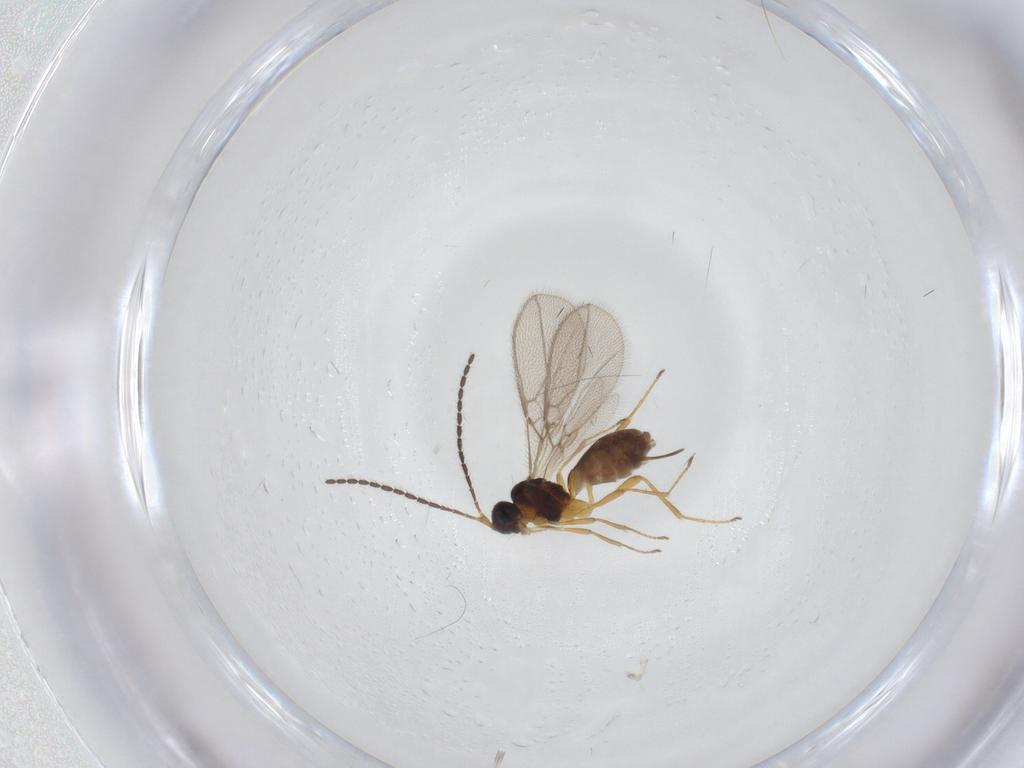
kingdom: Animalia
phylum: Arthropoda
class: Insecta
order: Hymenoptera
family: Braconidae
